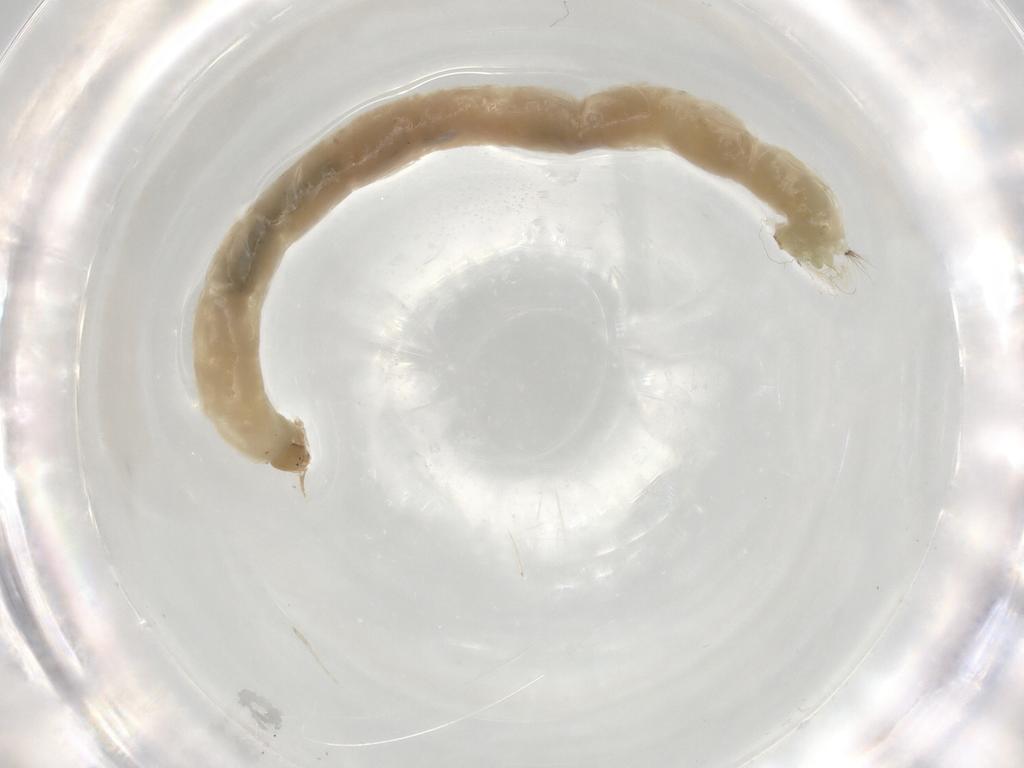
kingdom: Animalia
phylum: Arthropoda
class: Insecta
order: Diptera
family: Chironomidae
